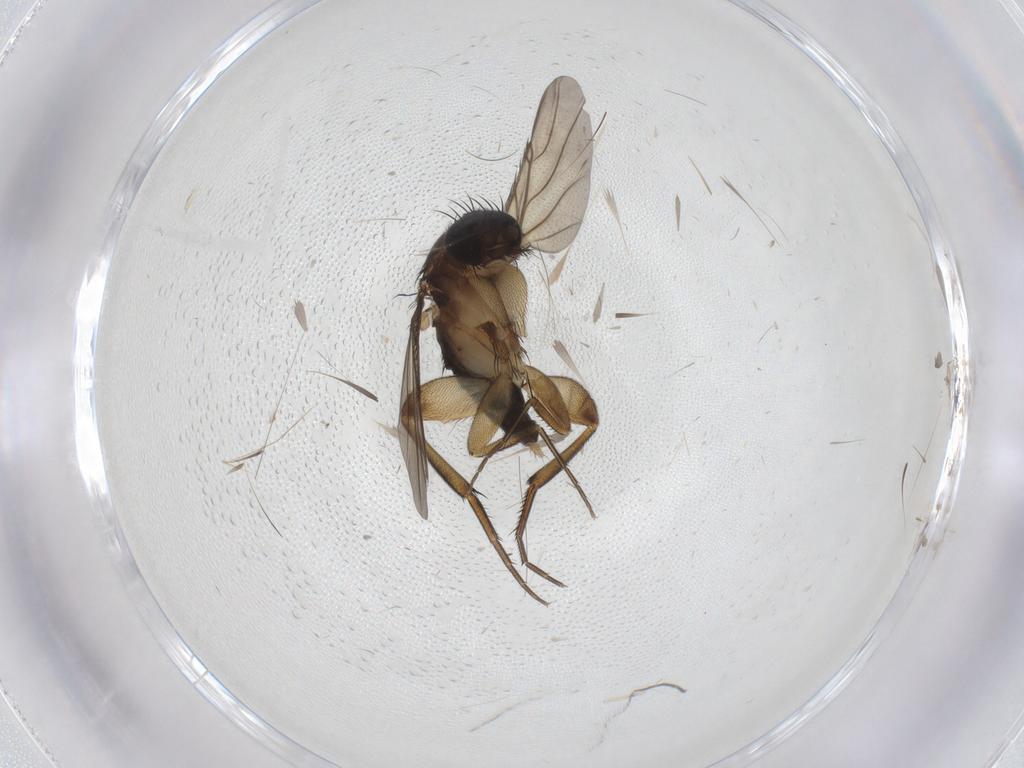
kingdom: Animalia
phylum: Arthropoda
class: Insecta
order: Diptera
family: Phoridae
